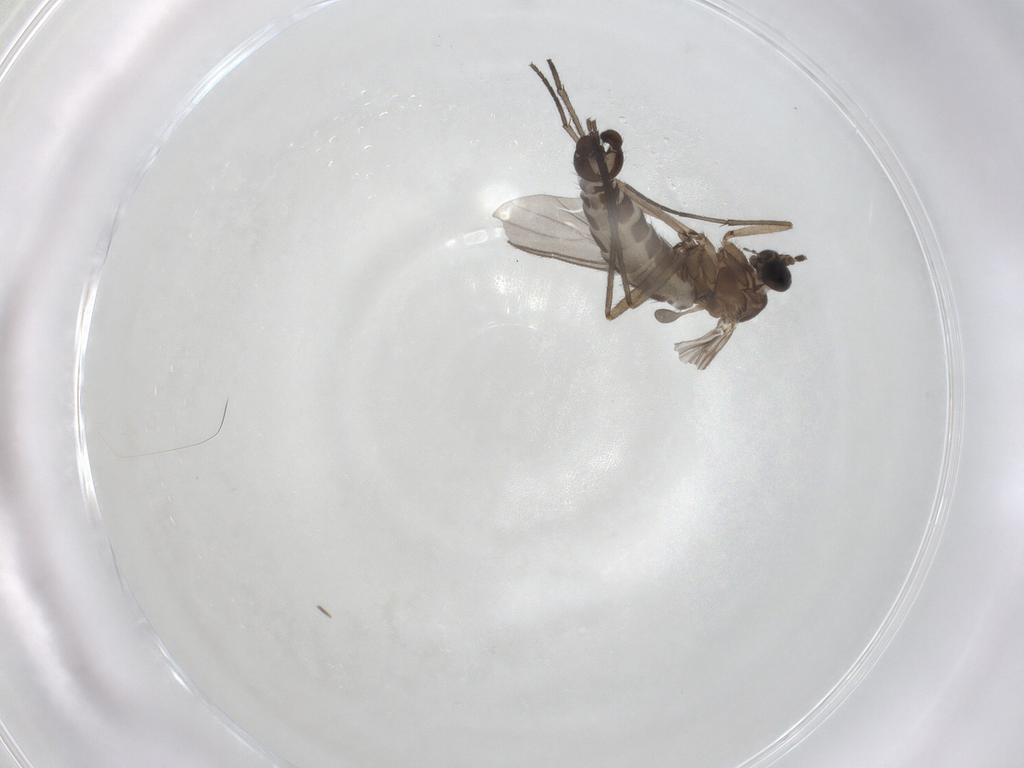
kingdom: Animalia
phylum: Arthropoda
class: Insecta
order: Diptera
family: Sciaridae
